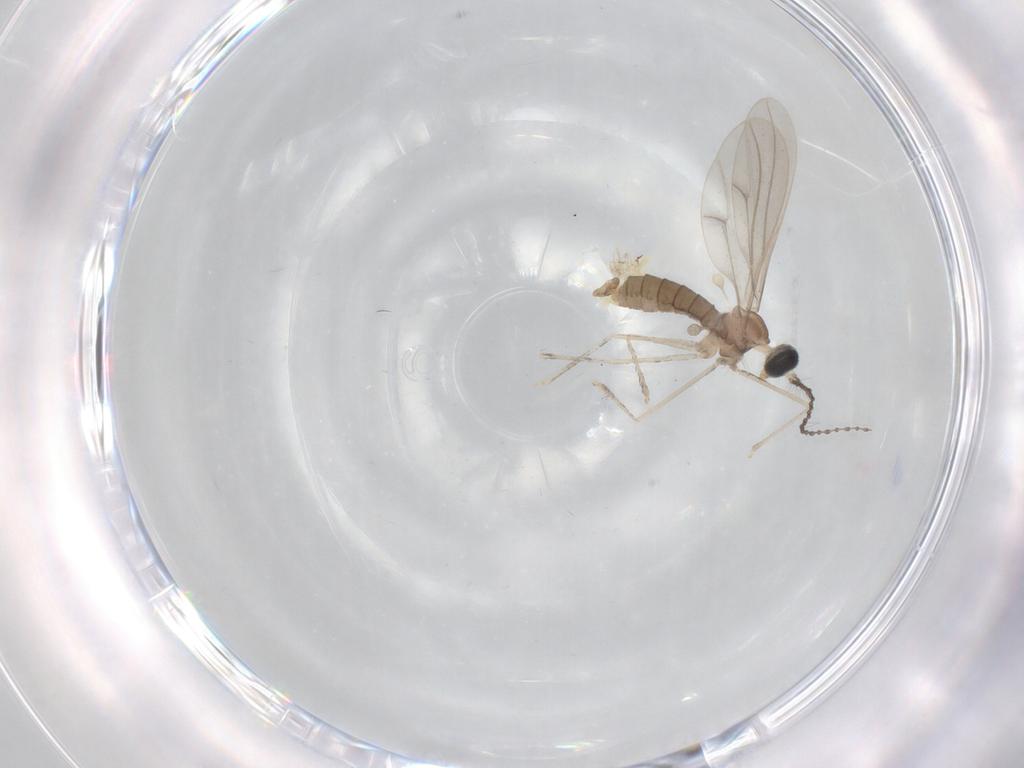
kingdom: Animalia
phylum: Arthropoda
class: Insecta
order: Diptera
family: Cecidomyiidae
